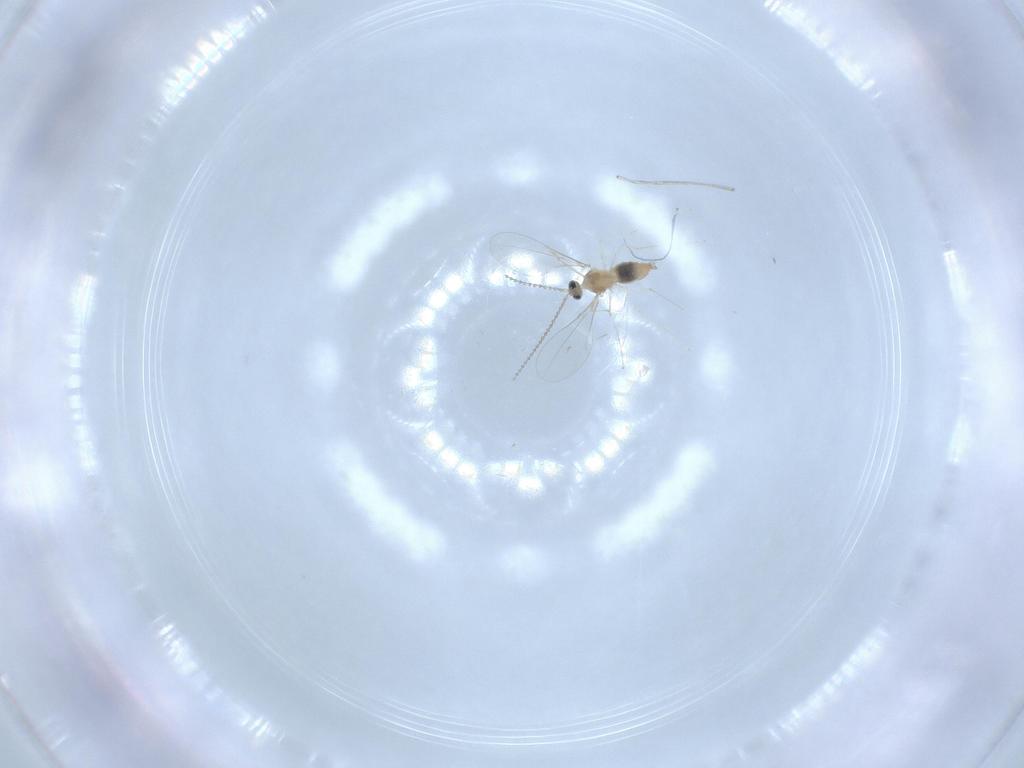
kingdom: Animalia
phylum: Arthropoda
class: Insecta
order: Diptera
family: Cecidomyiidae
